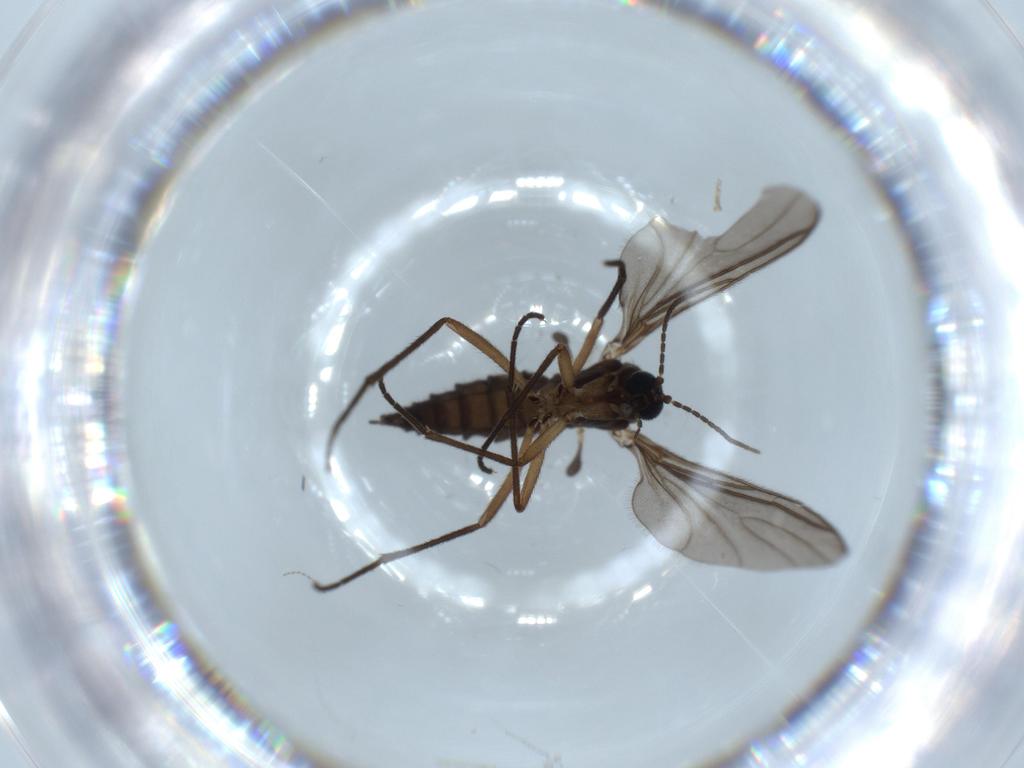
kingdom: Animalia
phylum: Arthropoda
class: Insecta
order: Diptera
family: Sciaridae
